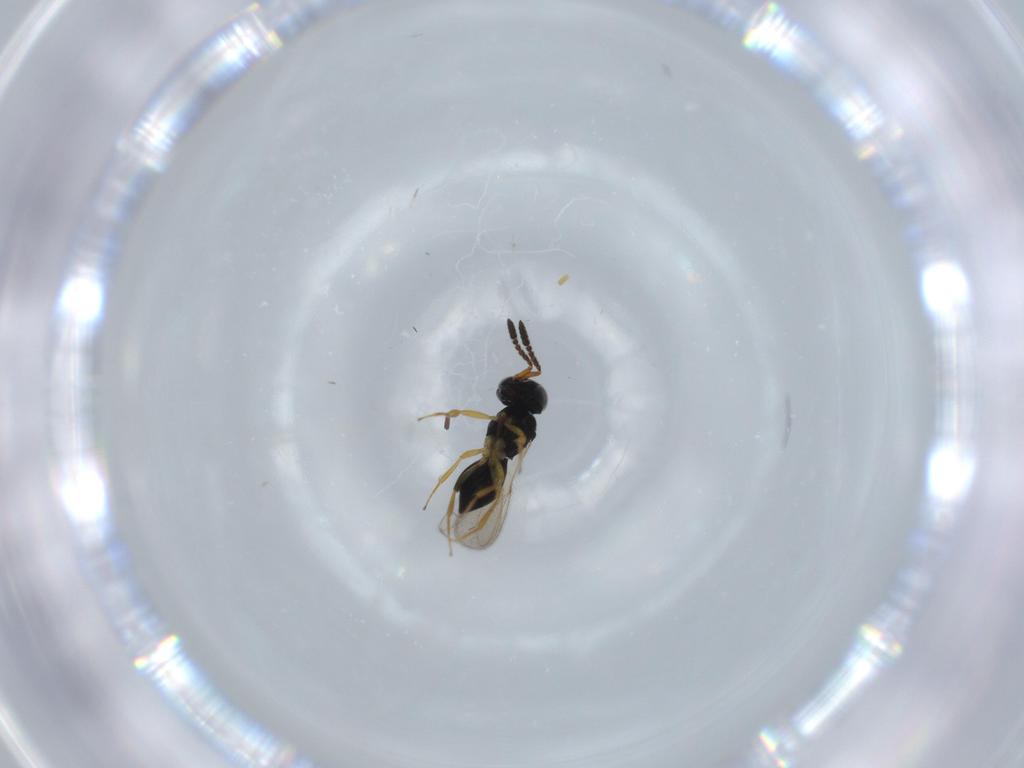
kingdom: Animalia
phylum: Arthropoda
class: Insecta
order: Hymenoptera
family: Scelionidae
